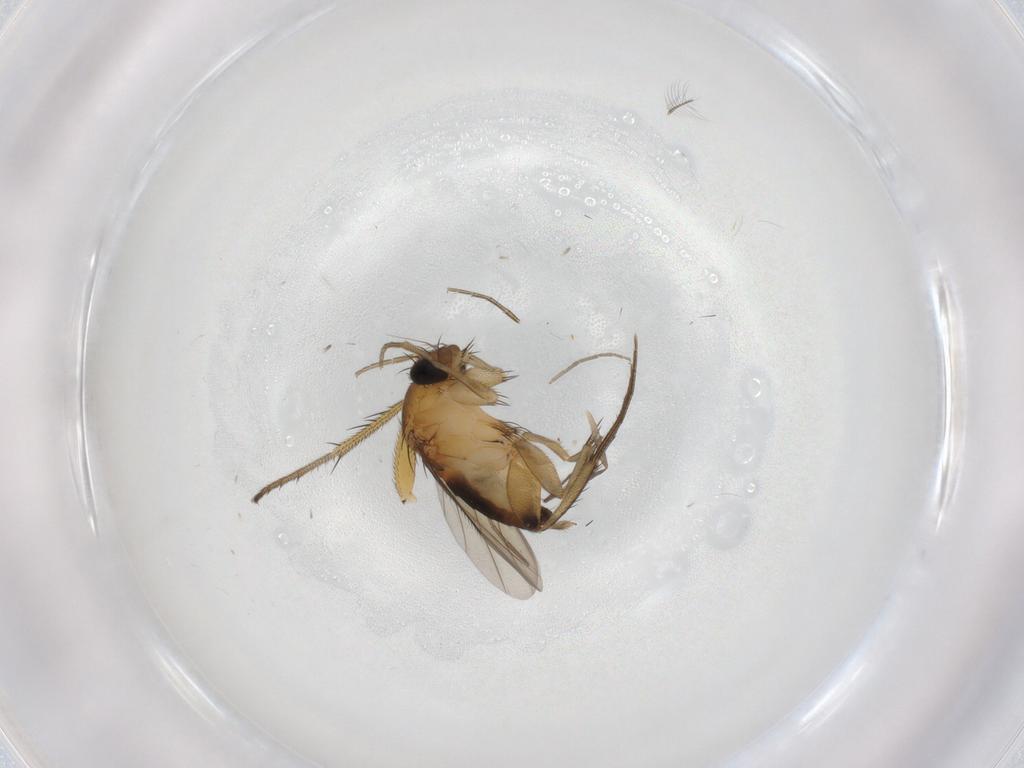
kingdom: Animalia
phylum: Arthropoda
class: Insecta
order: Diptera
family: Phoridae
